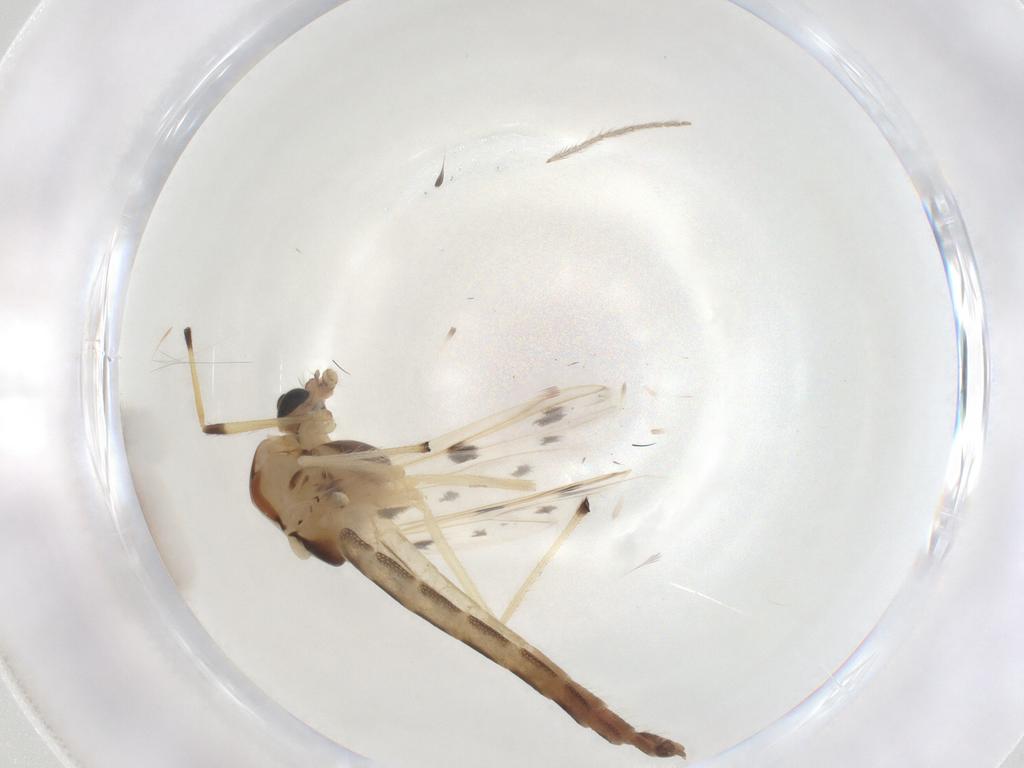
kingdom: Animalia
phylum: Arthropoda
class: Insecta
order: Diptera
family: Chironomidae
